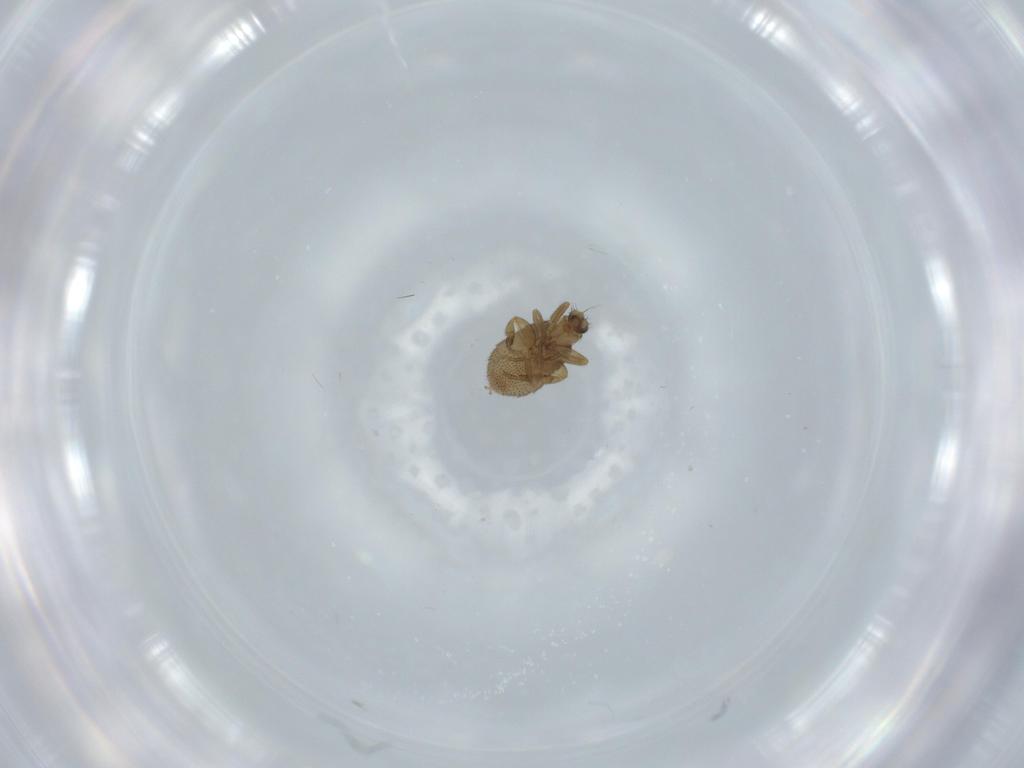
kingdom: Animalia
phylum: Arthropoda
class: Insecta
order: Diptera
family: Phoridae
